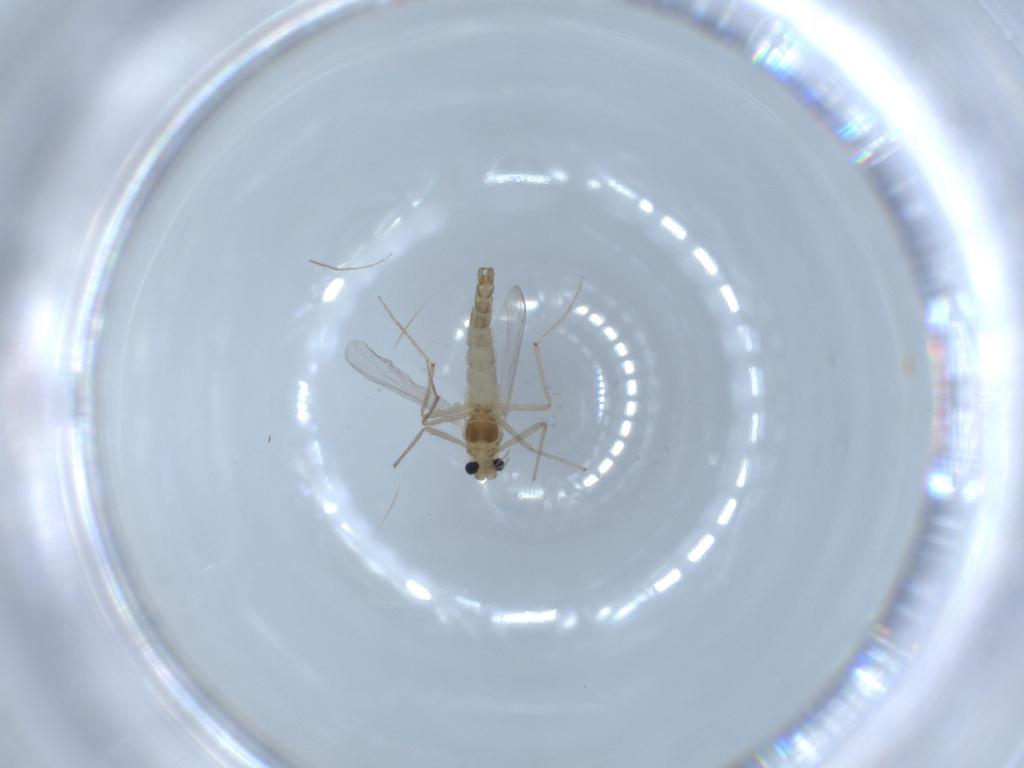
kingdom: Animalia
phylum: Arthropoda
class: Insecta
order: Diptera
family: Chironomidae
